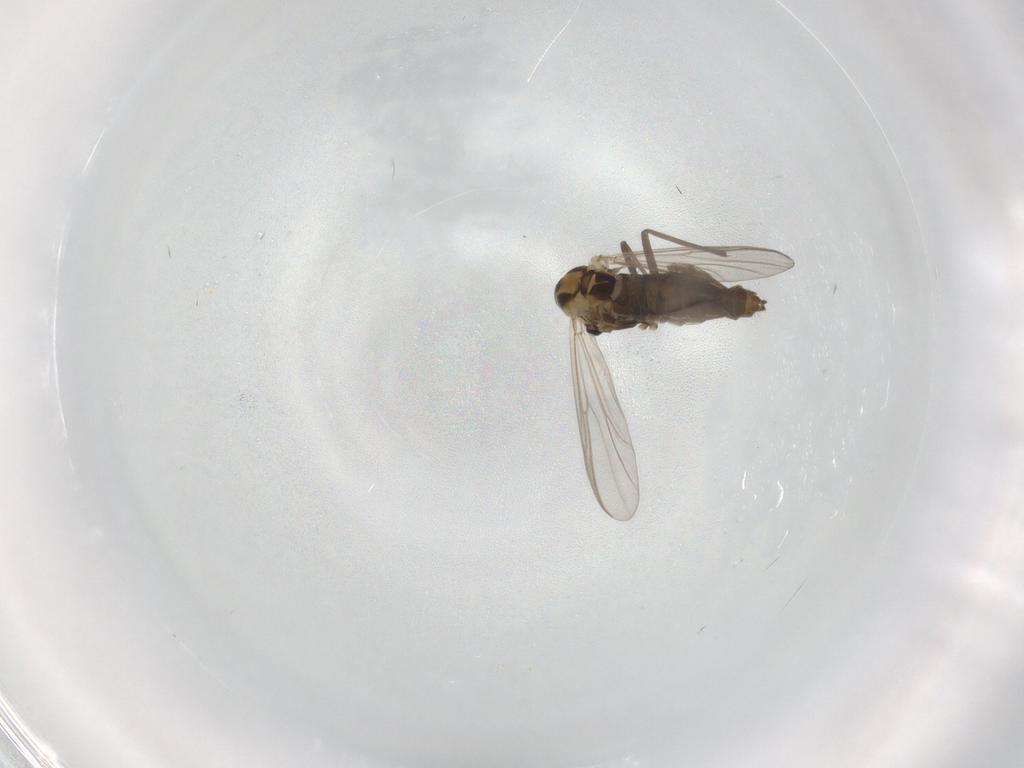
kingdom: Animalia
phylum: Arthropoda
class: Insecta
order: Diptera
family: Chironomidae
